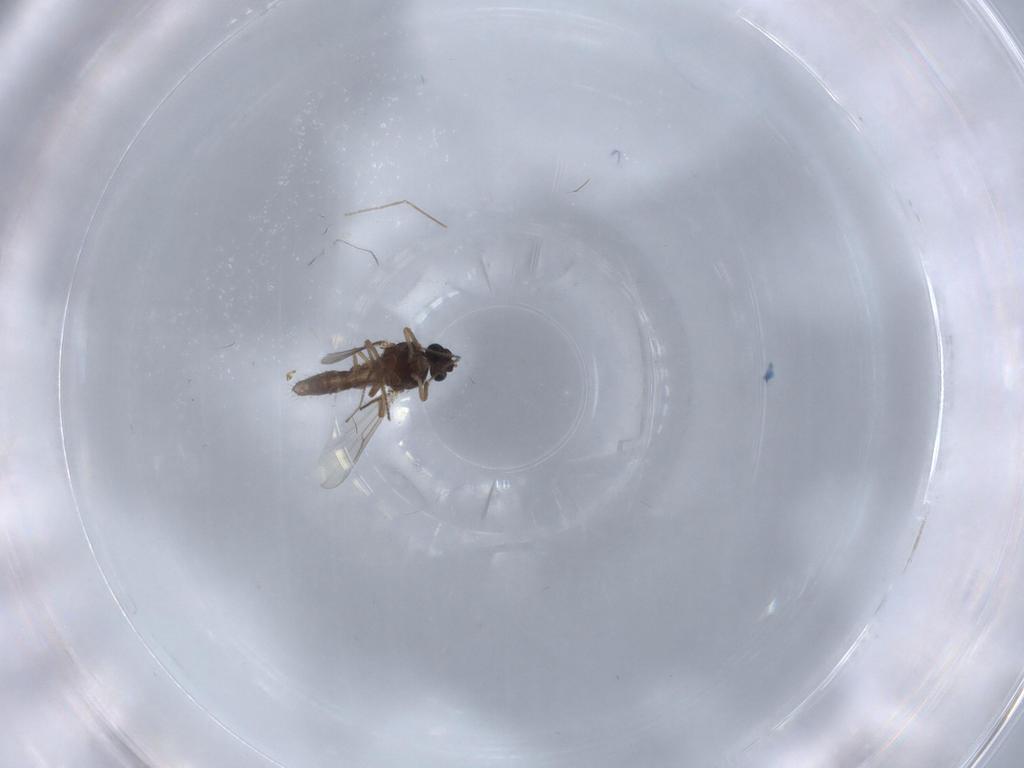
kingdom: Animalia
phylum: Arthropoda
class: Insecta
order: Diptera
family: Ceratopogonidae
